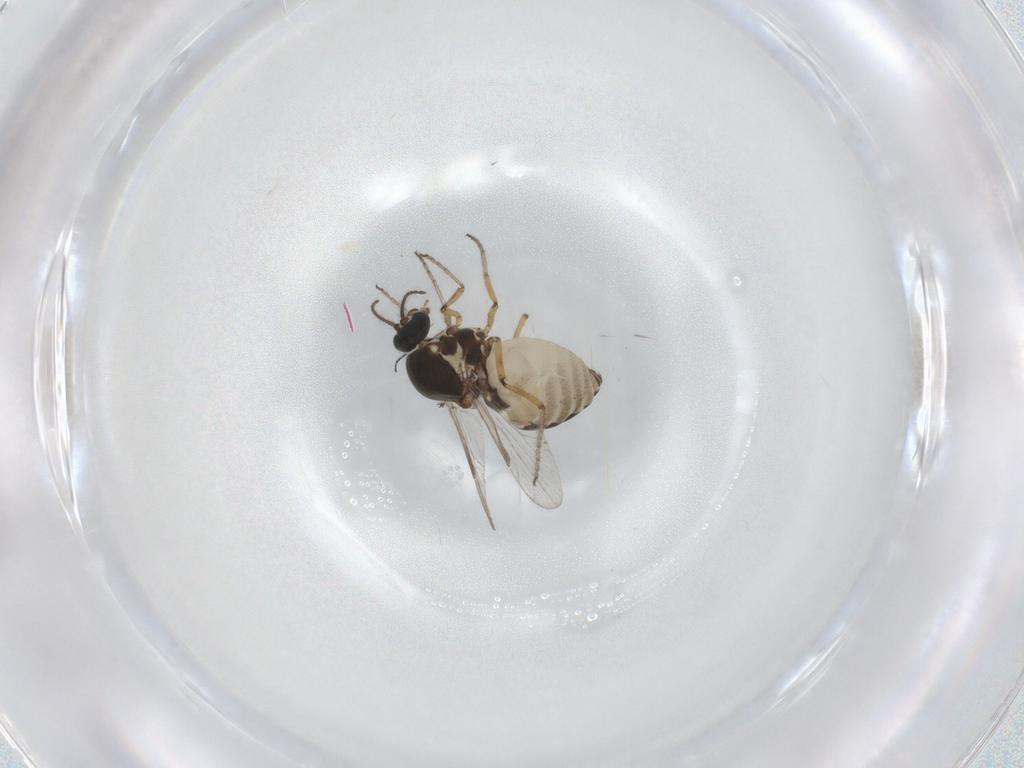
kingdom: Animalia
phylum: Arthropoda
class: Insecta
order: Diptera
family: Ceratopogonidae
